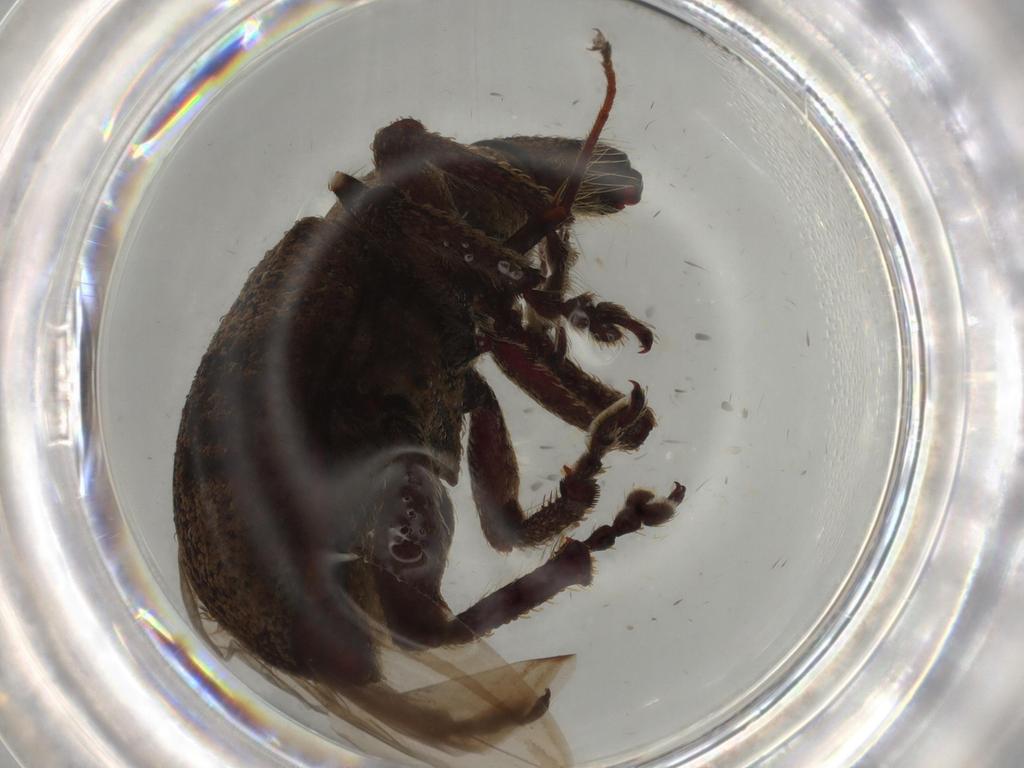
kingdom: Animalia
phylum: Arthropoda
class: Insecta
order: Coleoptera
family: Curculionidae
